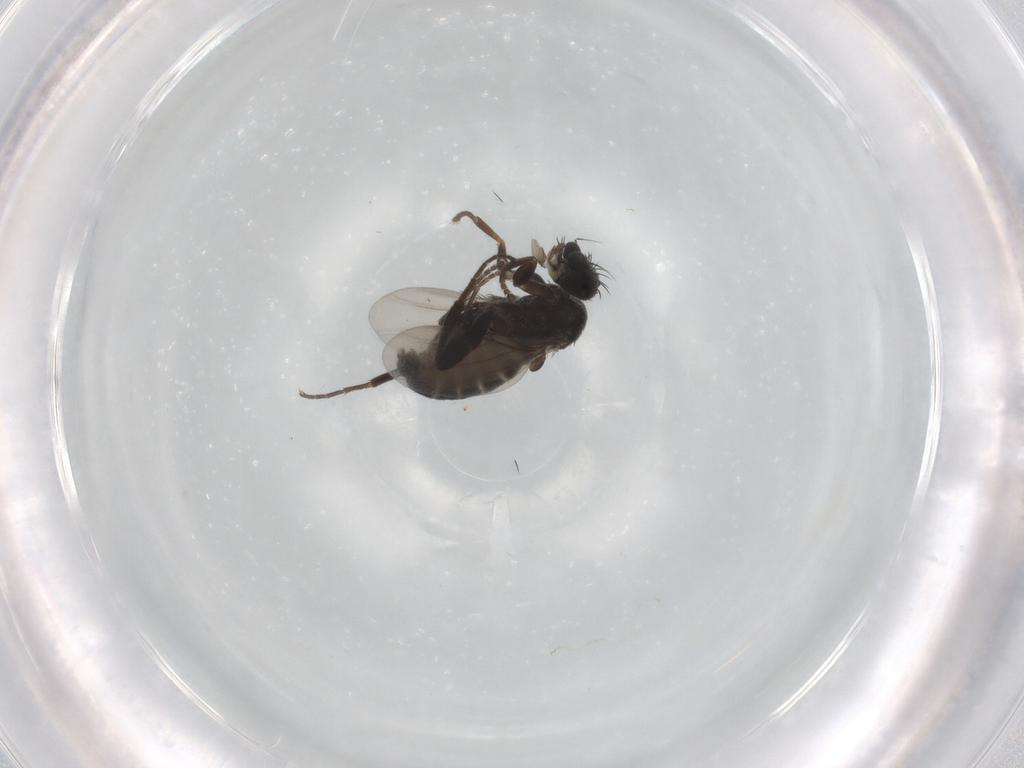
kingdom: Animalia
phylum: Arthropoda
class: Insecta
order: Diptera
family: Phoridae
